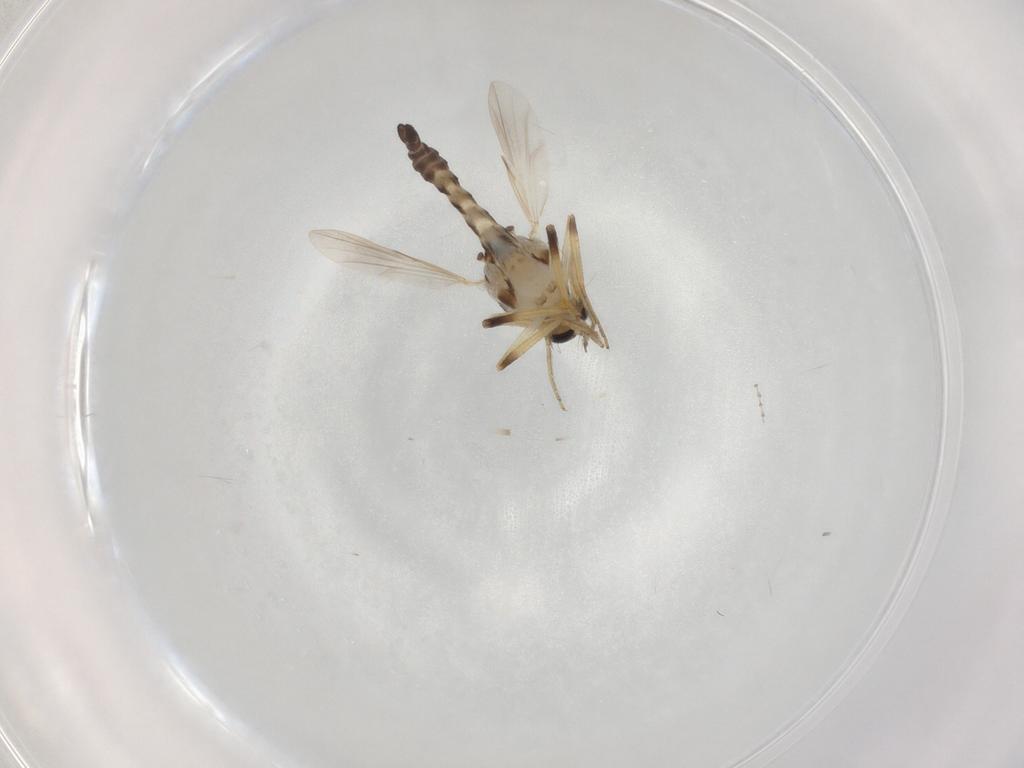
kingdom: Animalia
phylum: Arthropoda
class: Insecta
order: Diptera
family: Ceratopogonidae
